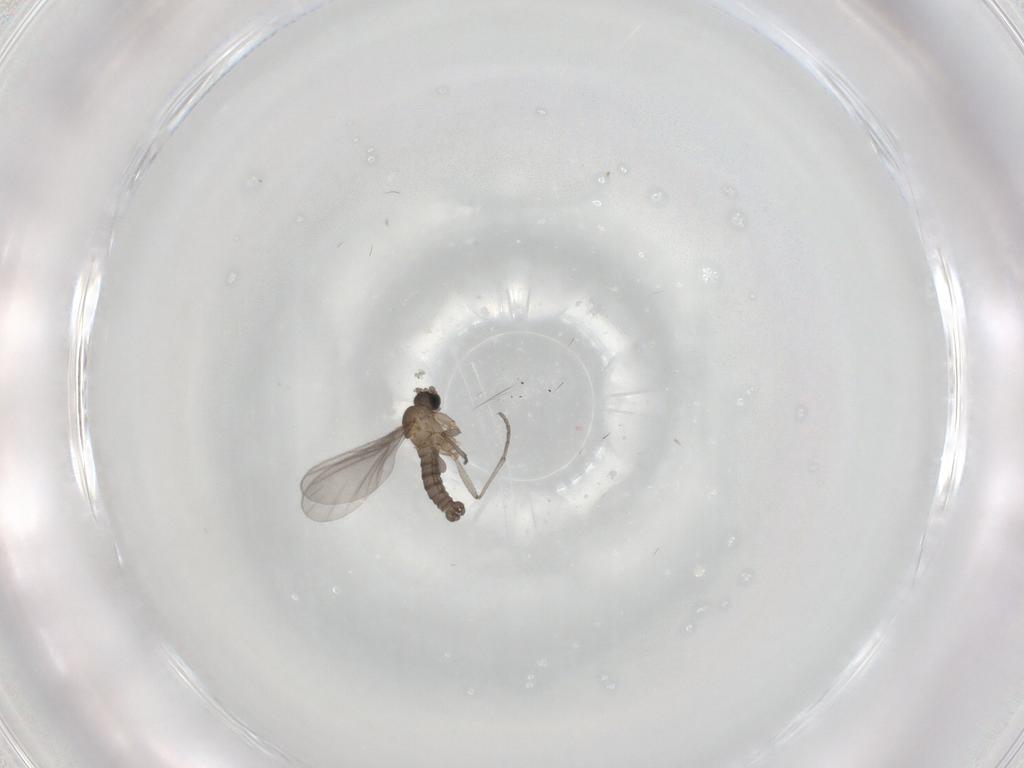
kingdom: Animalia
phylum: Arthropoda
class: Insecta
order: Diptera
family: Sciaridae
